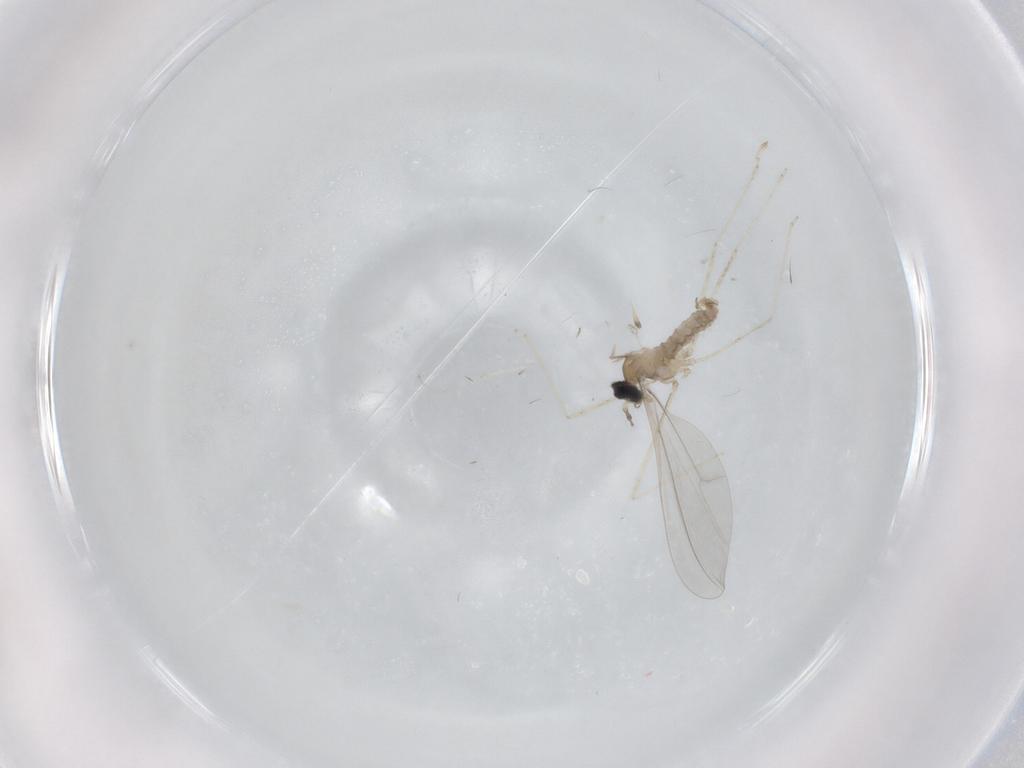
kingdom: Animalia
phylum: Arthropoda
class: Insecta
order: Diptera
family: Cecidomyiidae
